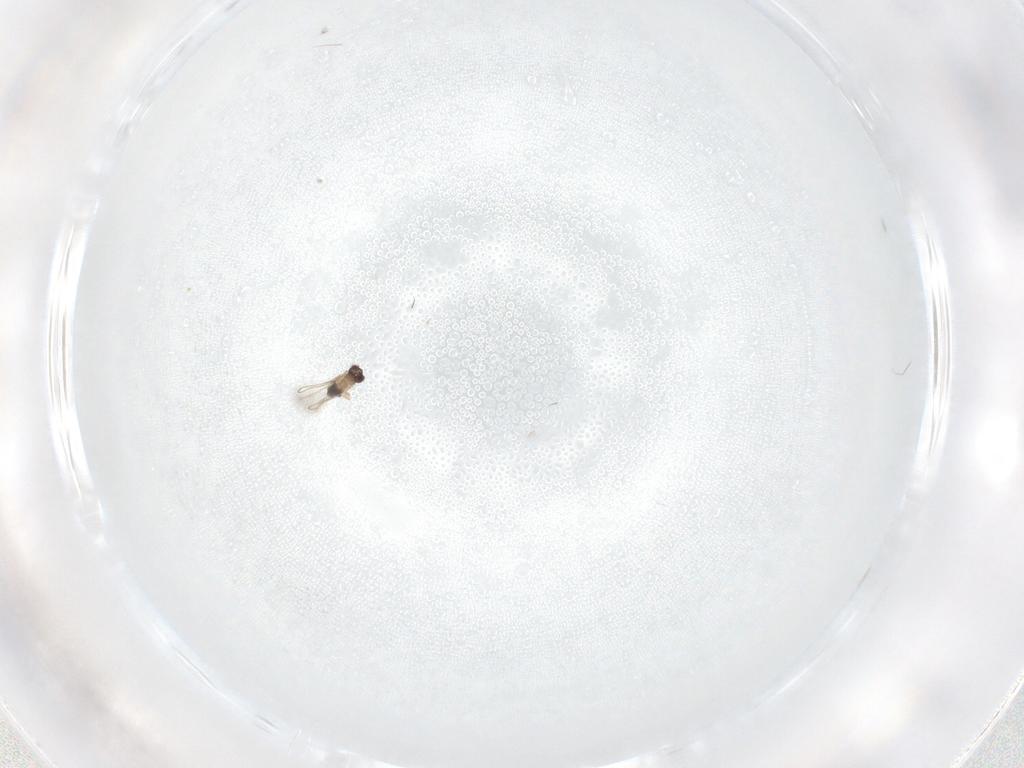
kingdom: Animalia
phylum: Arthropoda
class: Insecta
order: Hymenoptera
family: Mymaridae
